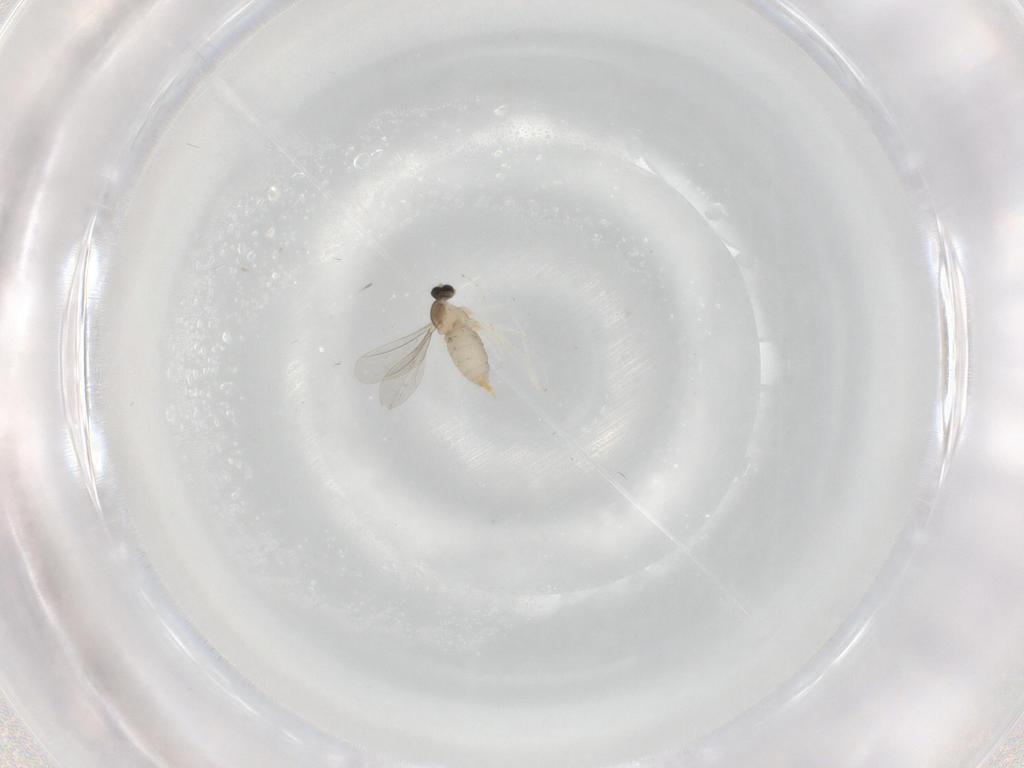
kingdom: Animalia
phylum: Arthropoda
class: Insecta
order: Diptera
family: Cecidomyiidae
